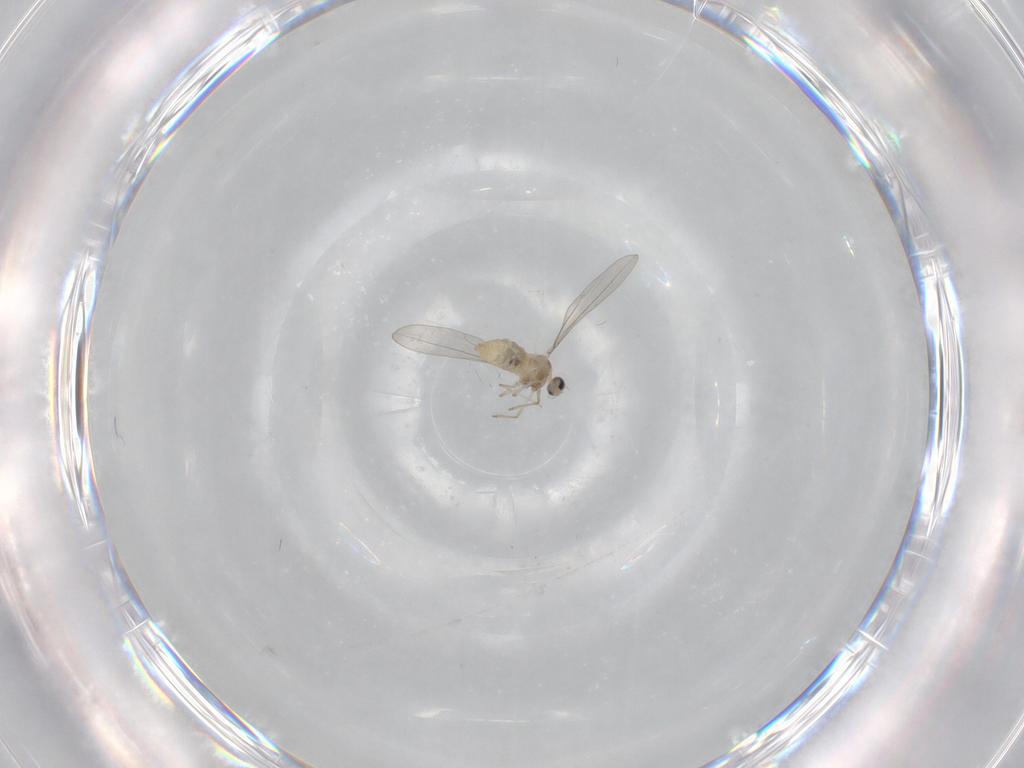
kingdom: Animalia
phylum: Arthropoda
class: Insecta
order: Diptera
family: Cecidomyiidae
